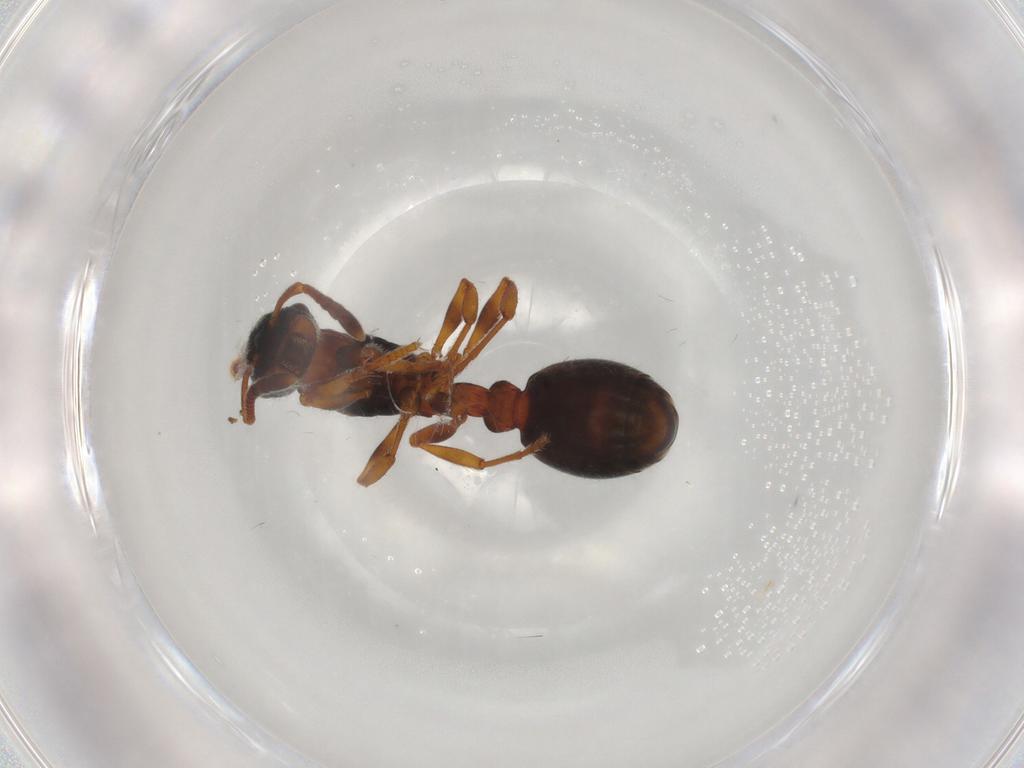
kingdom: Animalia
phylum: Arthropoda
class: Insecta
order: Hymenoptera
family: Formicidae
